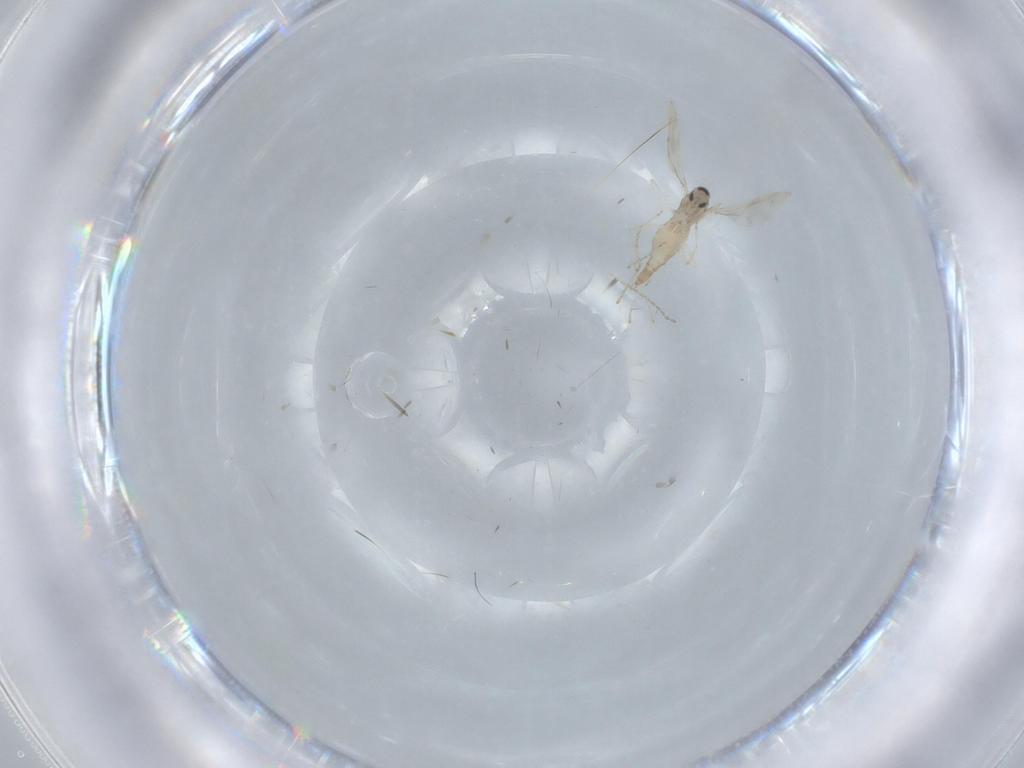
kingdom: Animalia
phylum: Arthropoda
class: Insecta
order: Diptera
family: Cecidomyiidae
